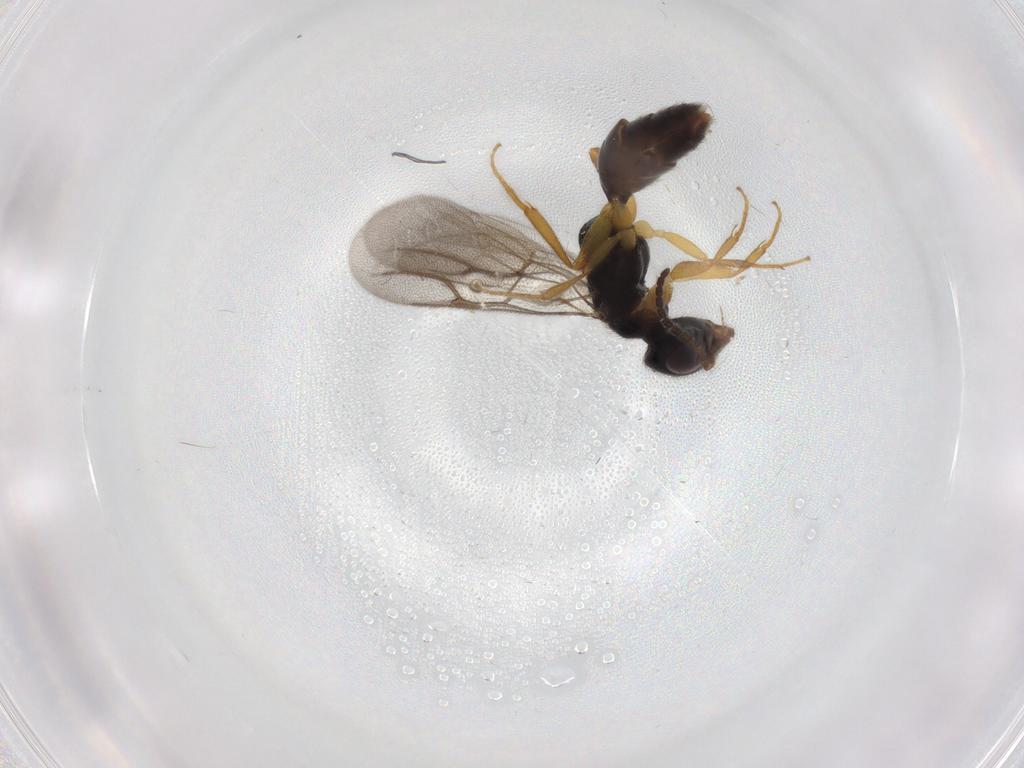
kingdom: Animalia
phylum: Arthropoda
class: Insecta
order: Hymenoptera
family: Bethylidae
